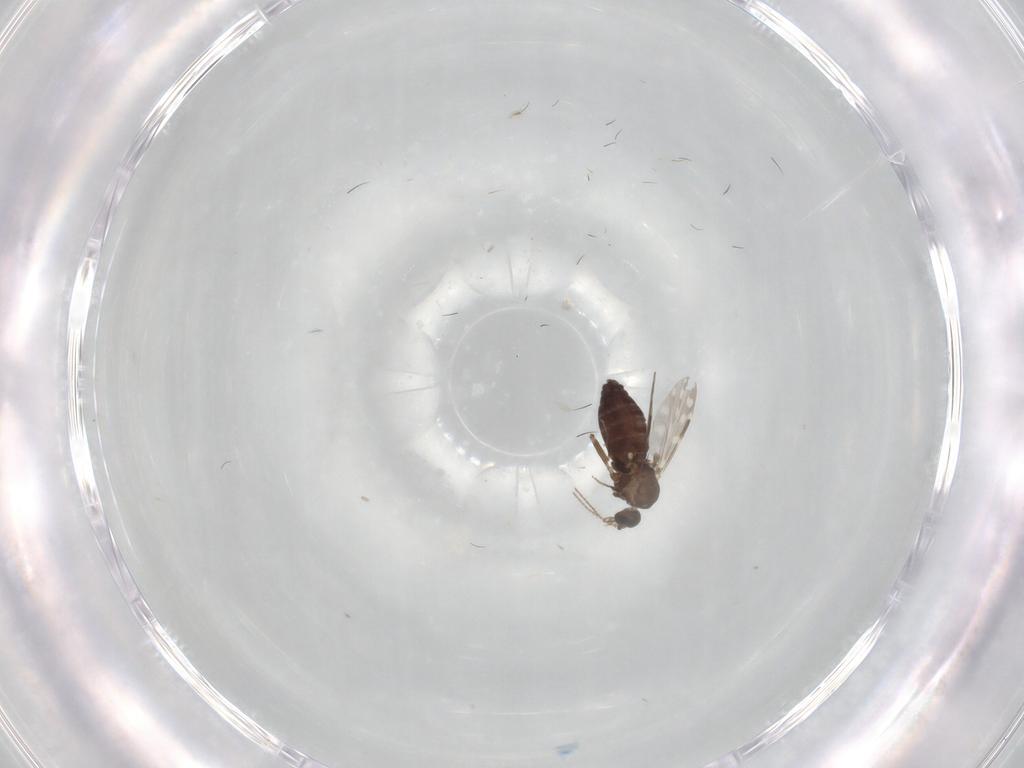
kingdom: Animalia
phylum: Arthropoda
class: Insecta
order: Diptera
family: Ceratopogonidae
